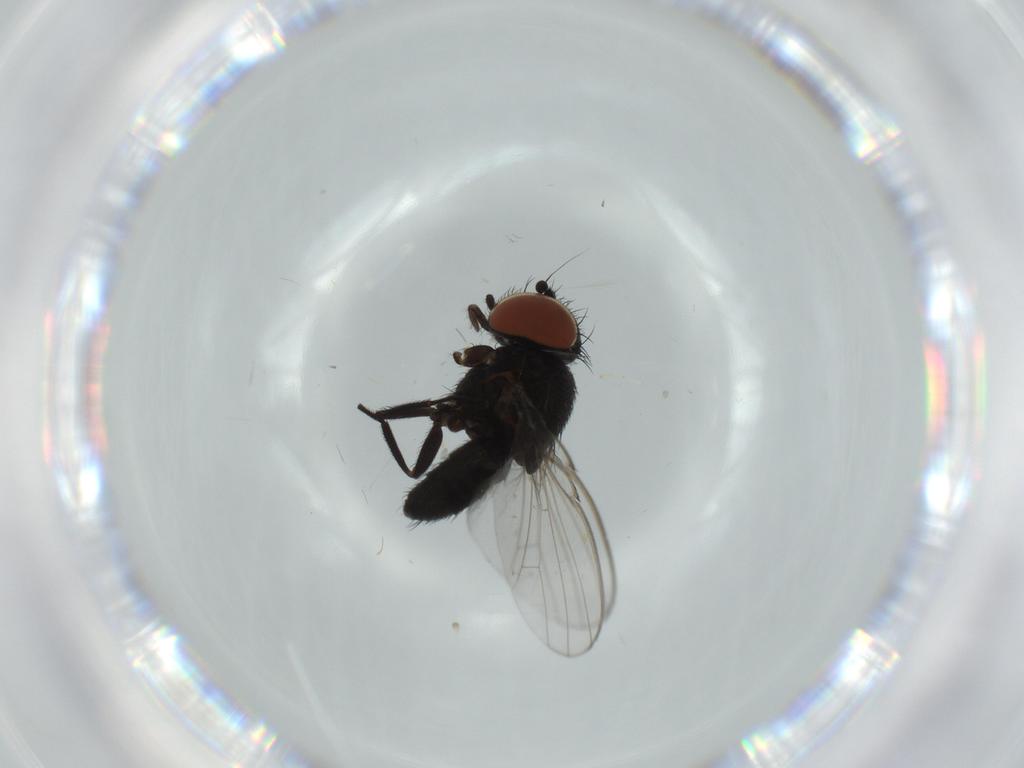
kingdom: Animalia
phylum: Arthropoda
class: Insecta
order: Diptera
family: Milichiidae
